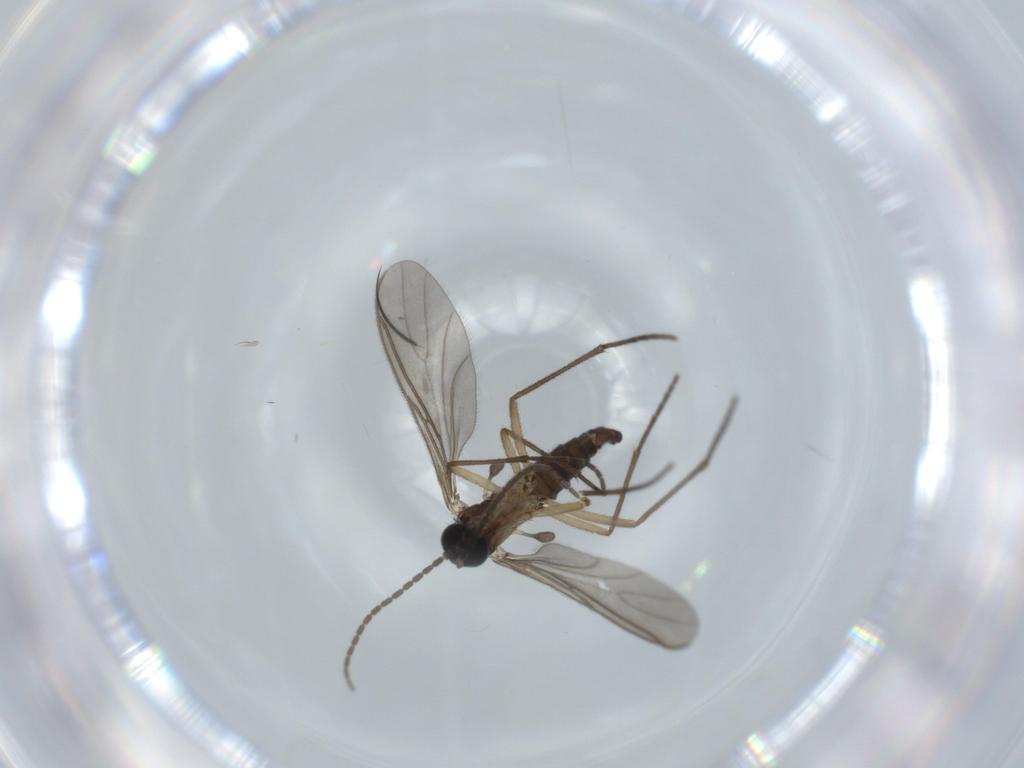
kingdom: Animalia
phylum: Arthropoda
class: Insecta
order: Diptera
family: Sciaridae
